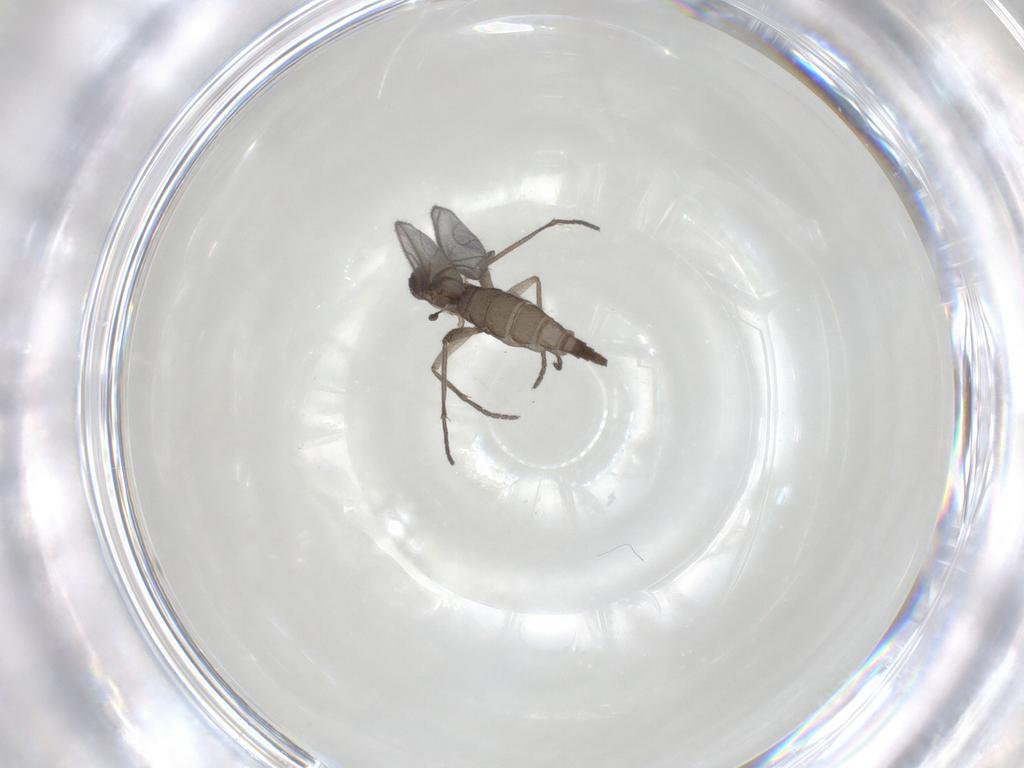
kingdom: Animalia
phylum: Arthropoda
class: Insecta
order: Diptera
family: Sciaridae
